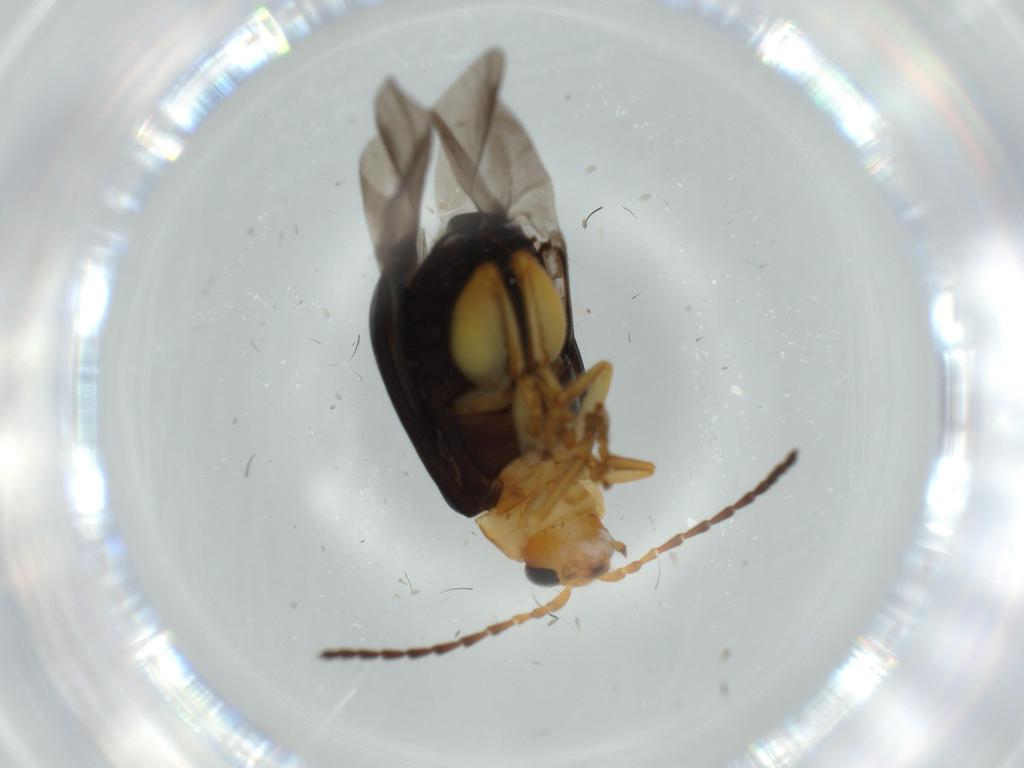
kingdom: Animalia
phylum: Arthropoda
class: Insecta
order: Coleoptera
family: Chrysomelidae
